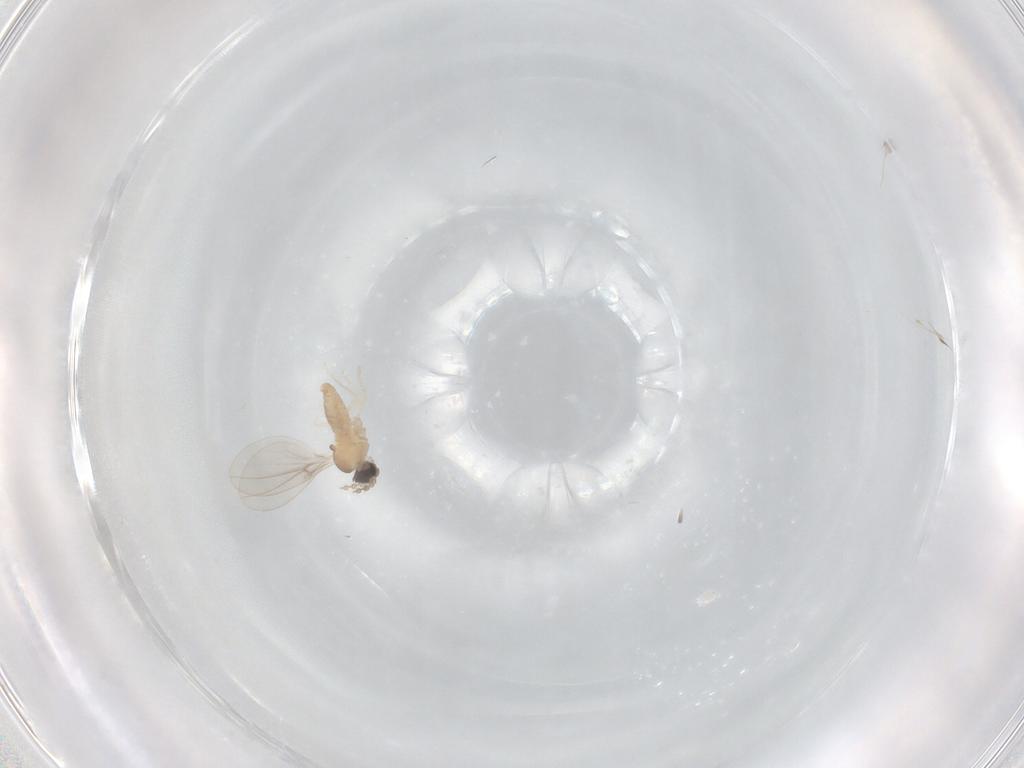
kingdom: Animalia
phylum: Arthropoda
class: Insecta
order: Diptera
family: Cecidomyiidae
